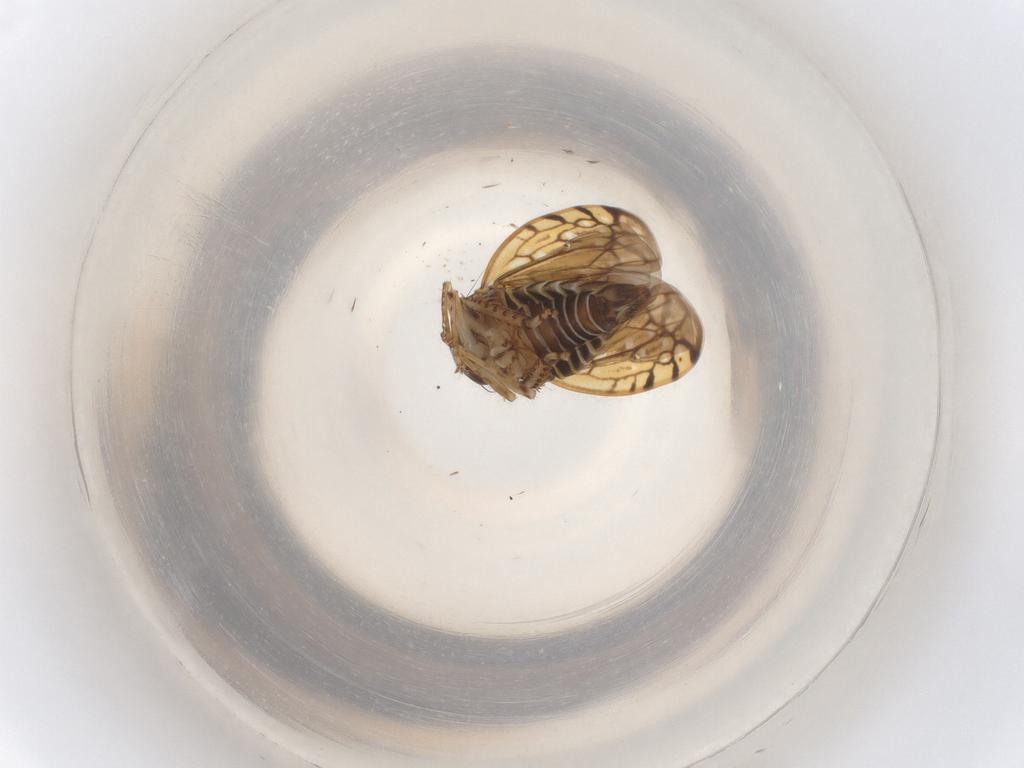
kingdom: Animalia
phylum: Arthropoda
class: Insecta
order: Hemiptera
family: Cicadellidae
